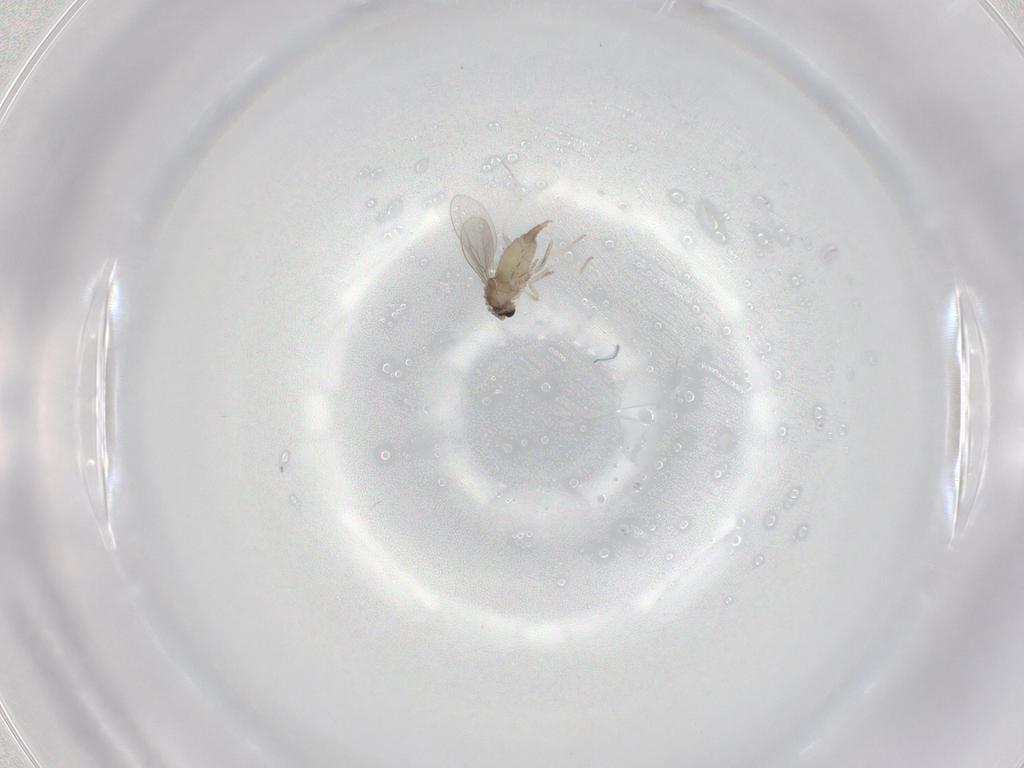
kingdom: Animalia
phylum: Arthropoda
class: Insecta
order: Diptera
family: Cecidomyiidae
